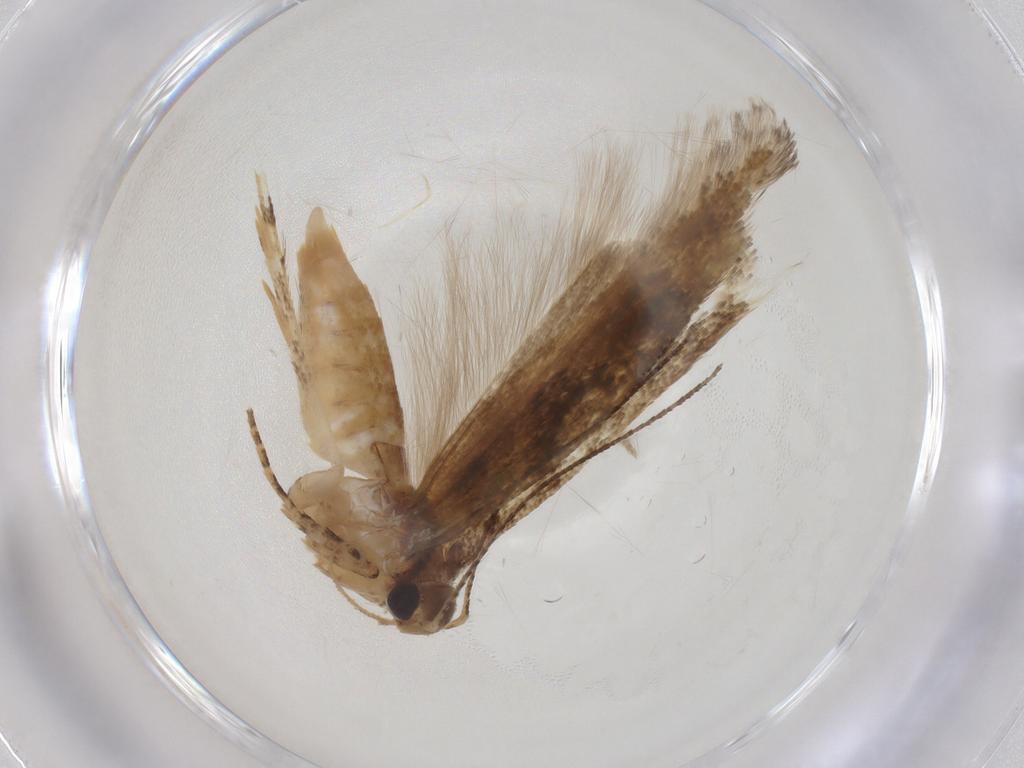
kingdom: Animalia
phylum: Arthropoda
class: Insecta
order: Lepidoptera
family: Gelechiidae
